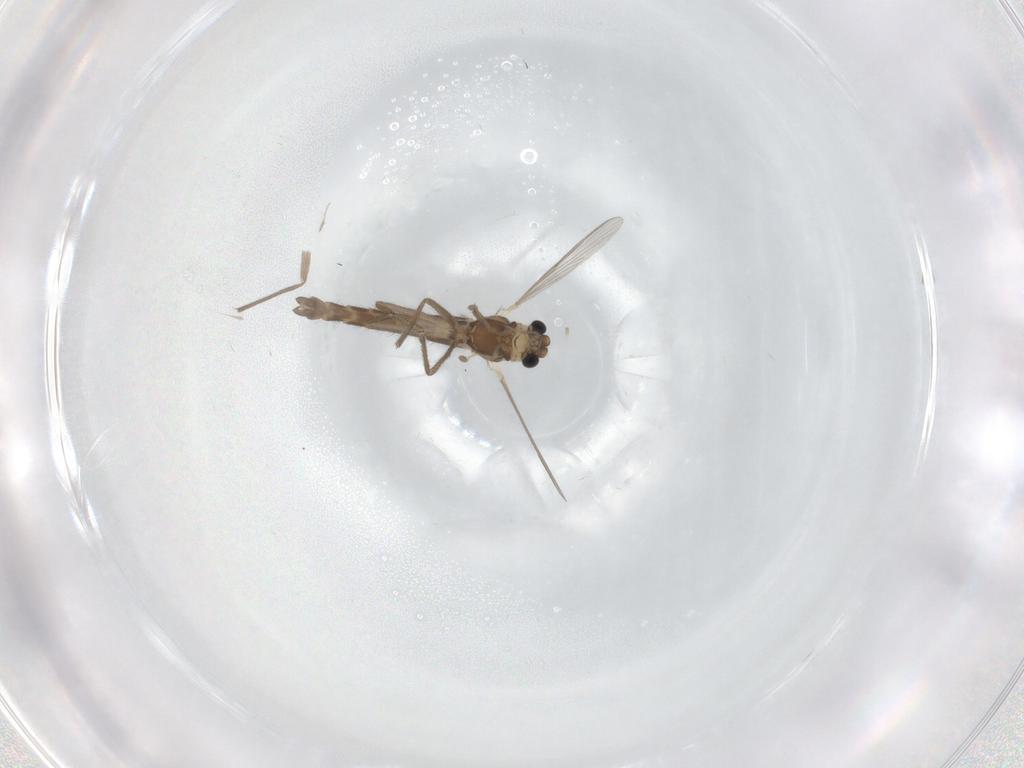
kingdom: Animalia
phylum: Arthropoda
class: Insecta
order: Diptera
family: Chironomidae
